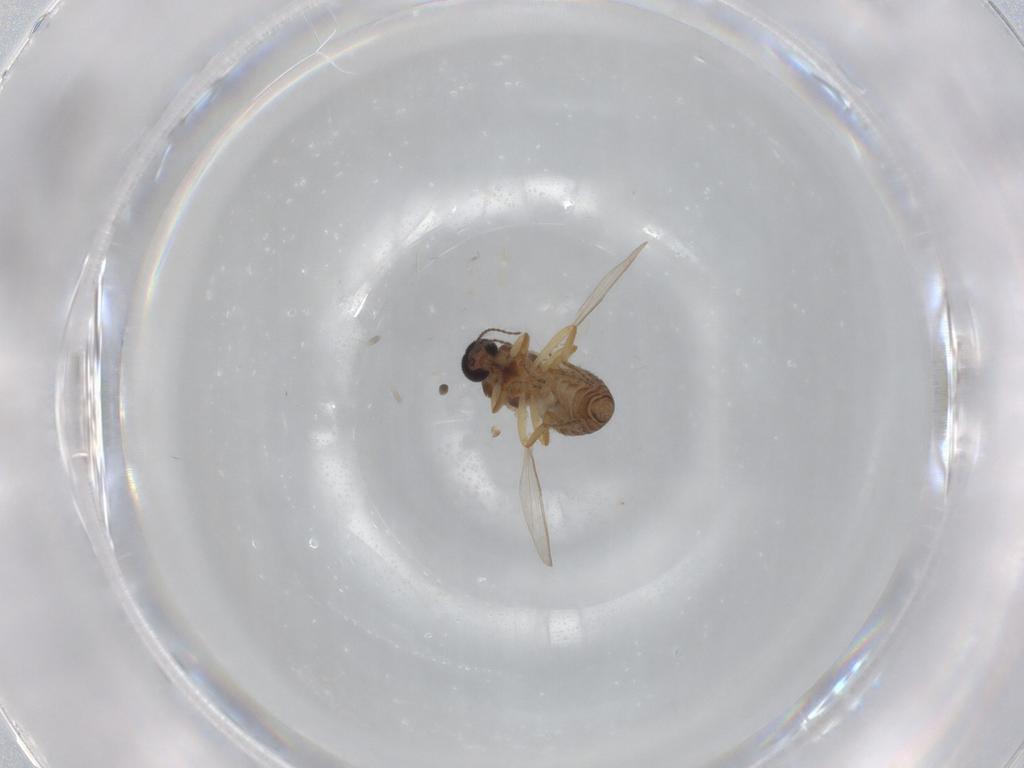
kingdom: Animalia
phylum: Arthropoda
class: Insecta
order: Diptera
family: Ceratopogonidae
